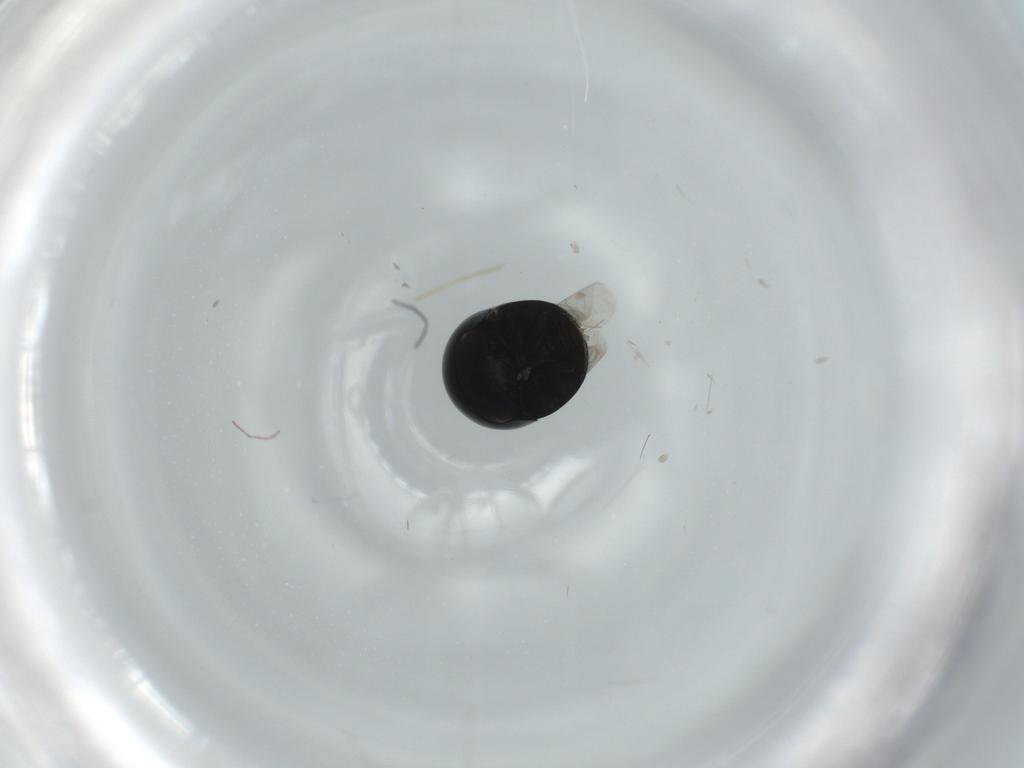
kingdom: Animalia
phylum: Arthropoda
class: Insecta
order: Coleoptera
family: Cybocephalidae
